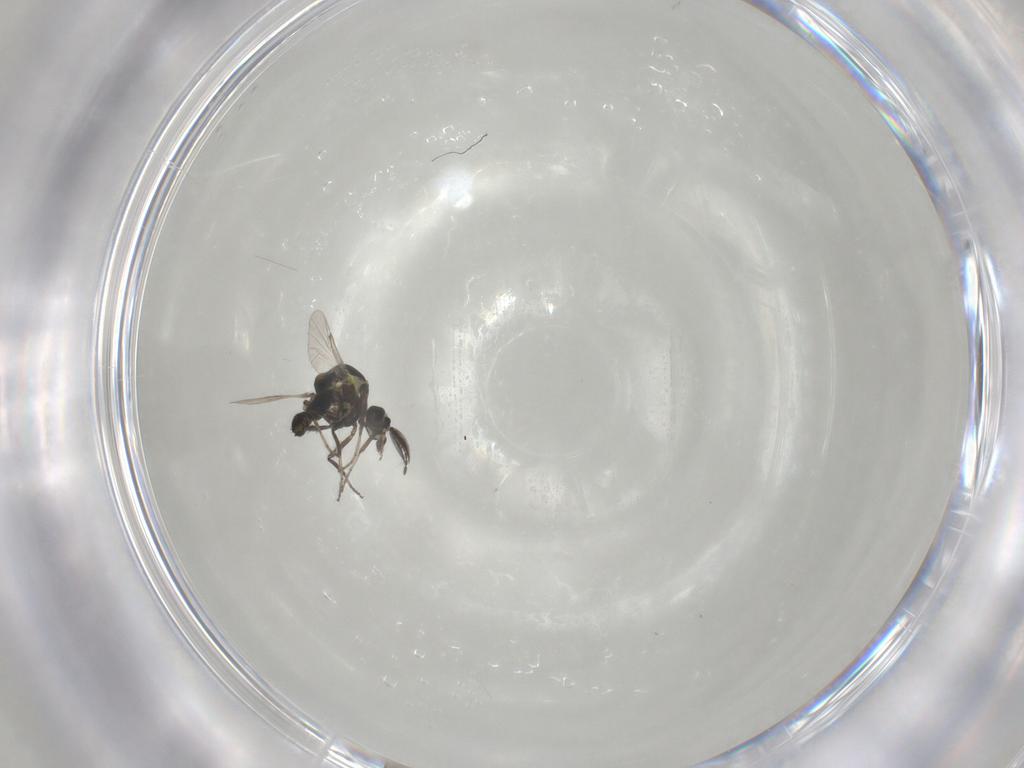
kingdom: Animalia
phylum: Arthropoda
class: Insecta
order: Diptera
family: Ceratopogonidae
